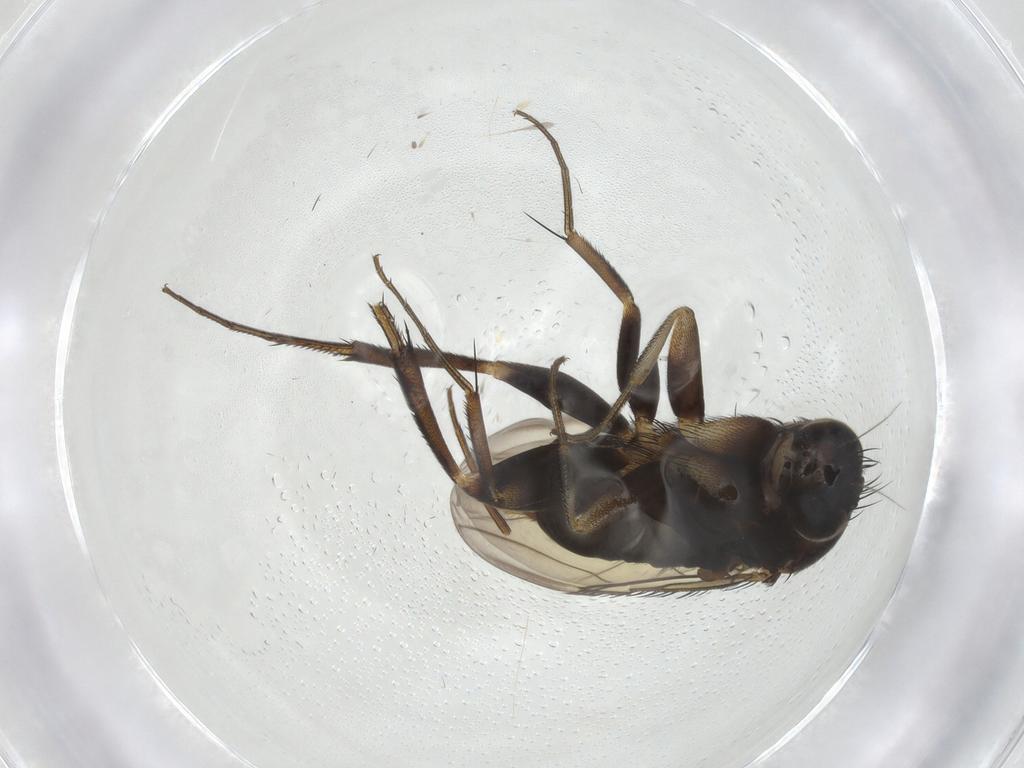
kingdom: Animalia
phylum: Arthropoda
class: Insecta
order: Diptera
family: Phoridae
